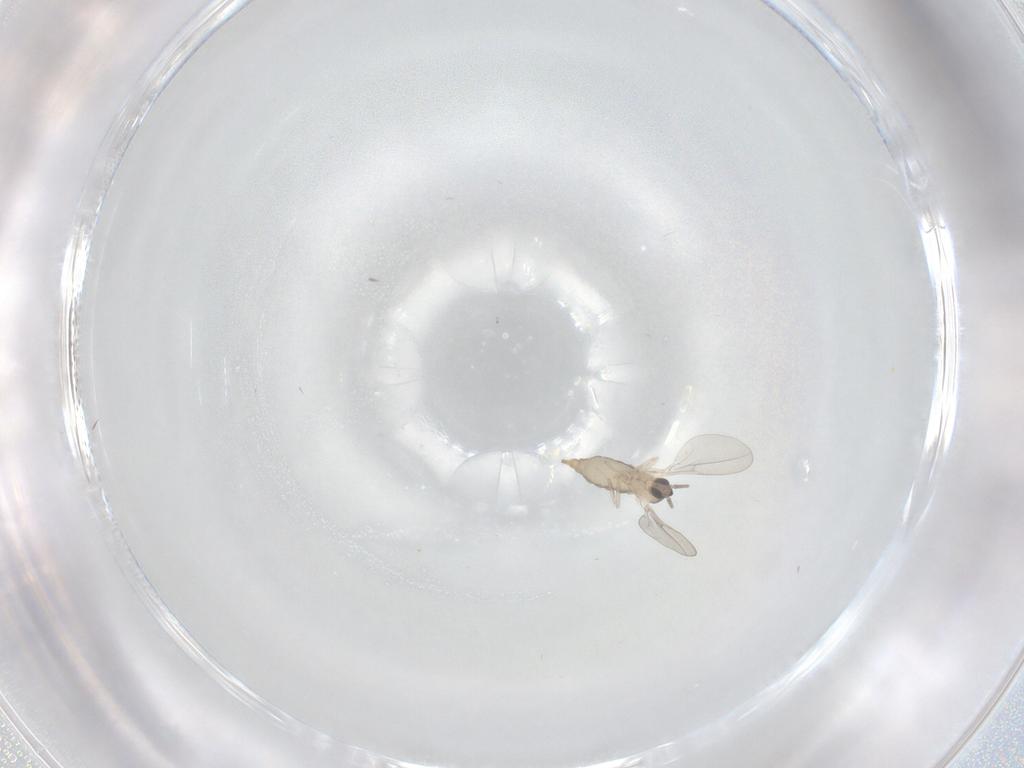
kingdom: Animalia
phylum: Arthropoda
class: Insecta
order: Diptera
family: Cecidomyiidae
